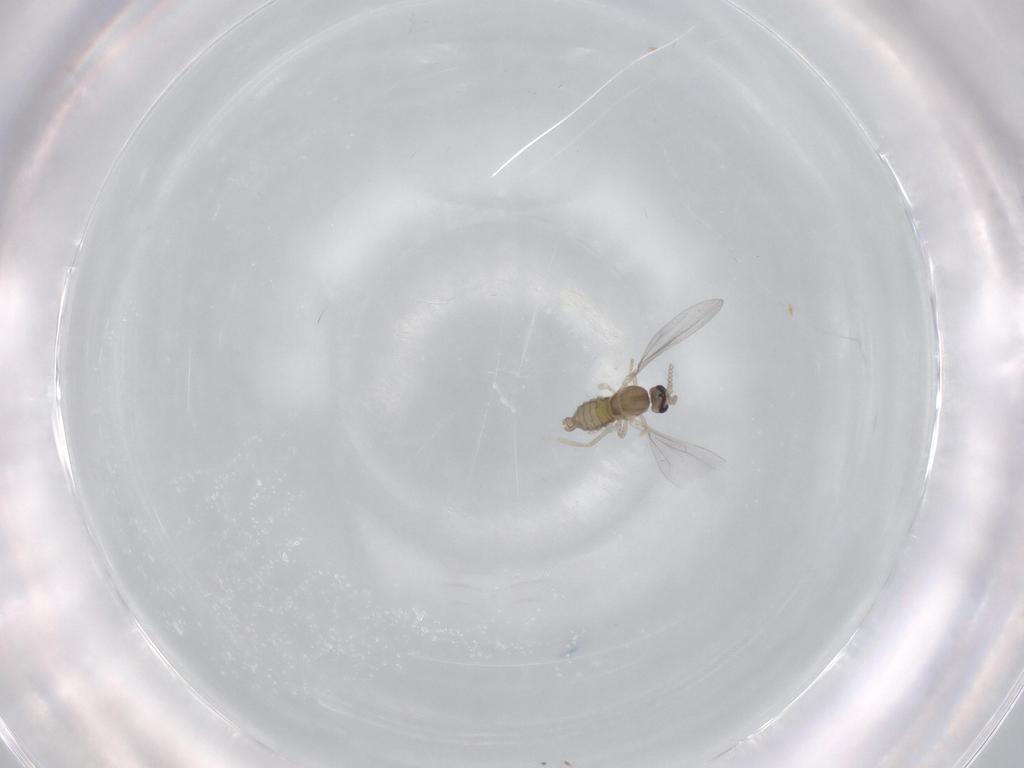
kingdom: Animalia
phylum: Arthropoda
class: Insecta
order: Diptera
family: Cecidomyiidae
